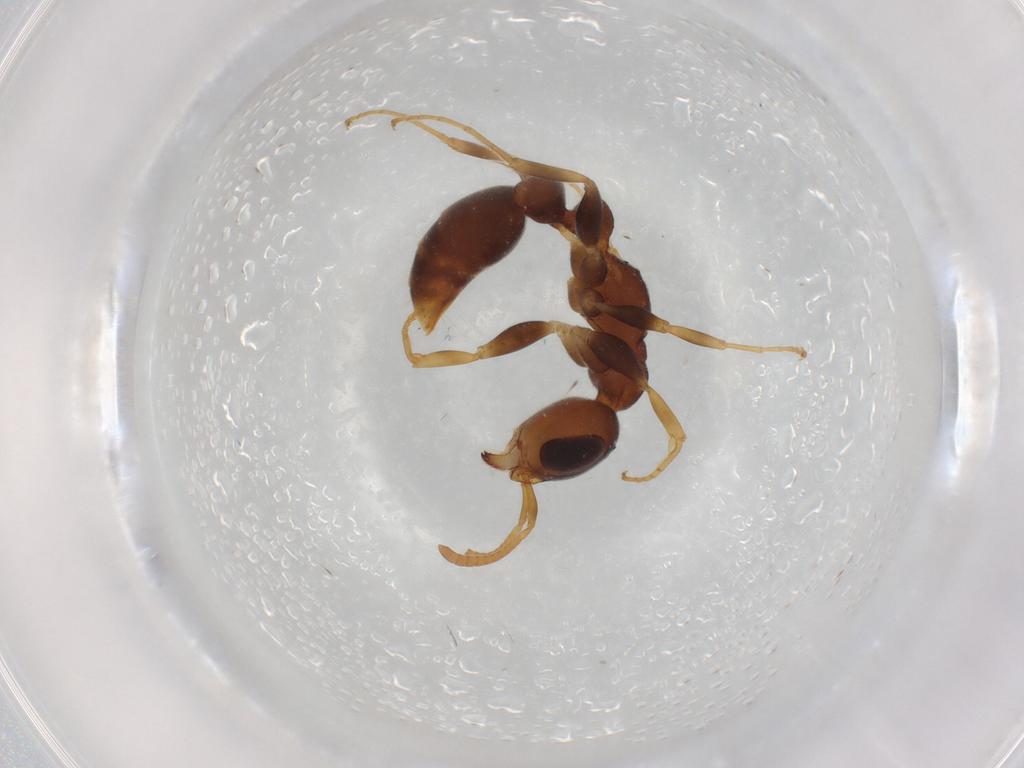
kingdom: Animalia
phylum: Arthropoda
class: Insecta
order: Hymenoptera
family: Formicidae
